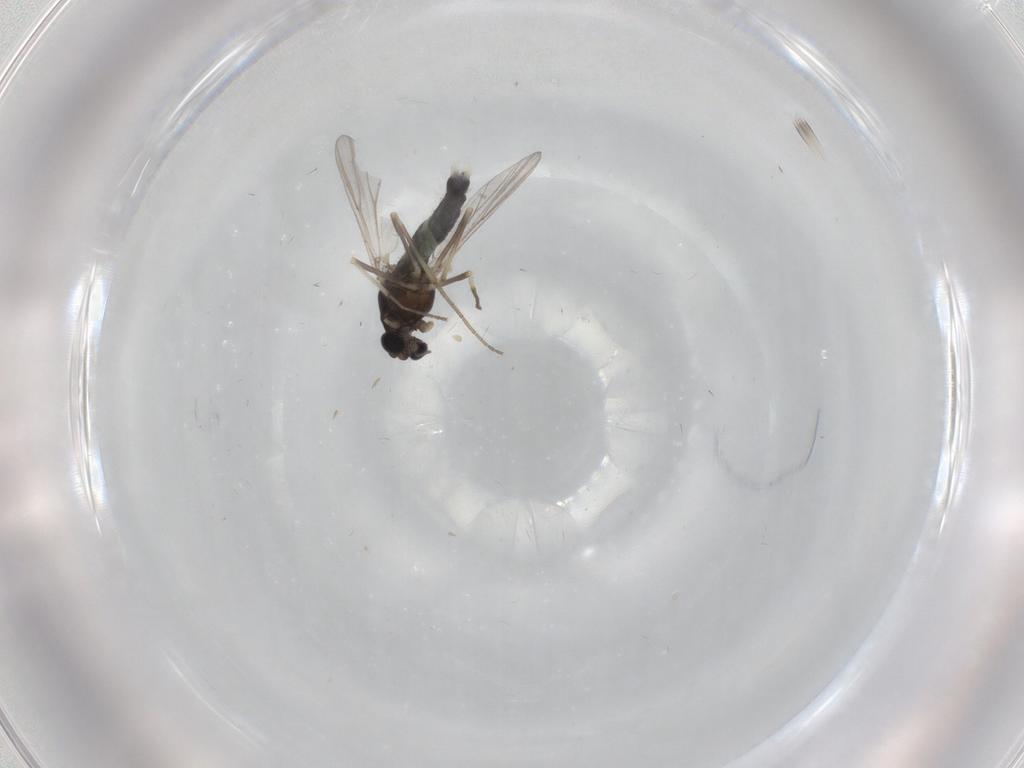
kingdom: Animalia
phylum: Arthropoda
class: Insecta
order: Diptera
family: Chironomidae
